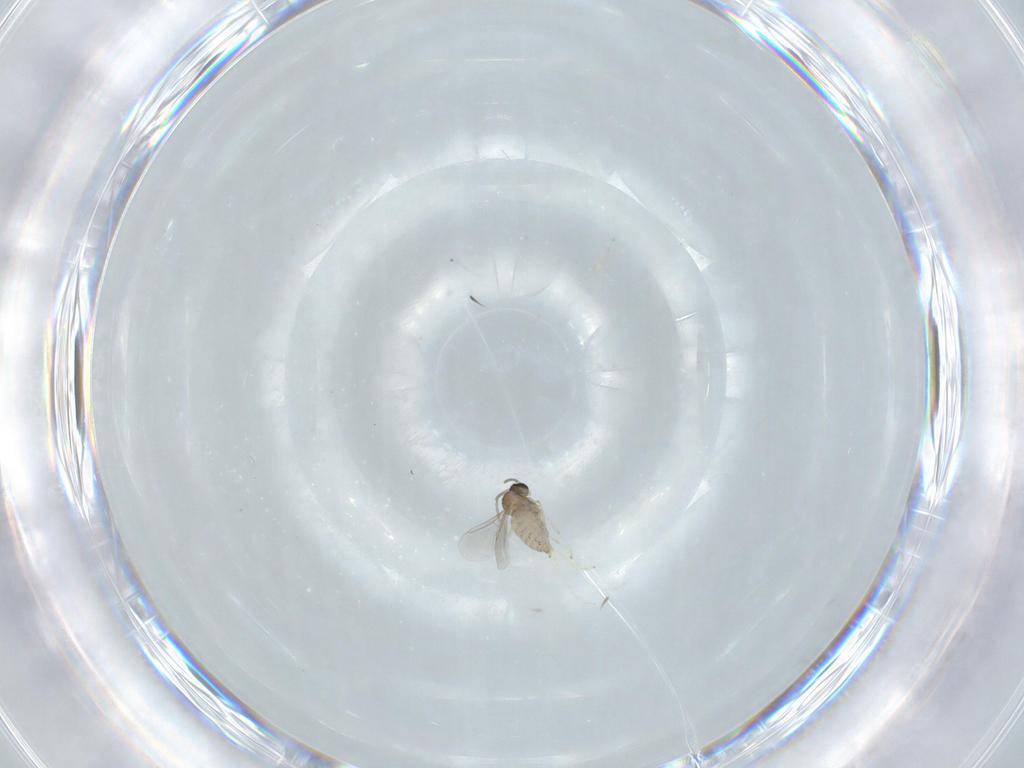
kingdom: Animalia
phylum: Arthropoda
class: Insecta
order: Diptera
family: Cecidomyiidae
